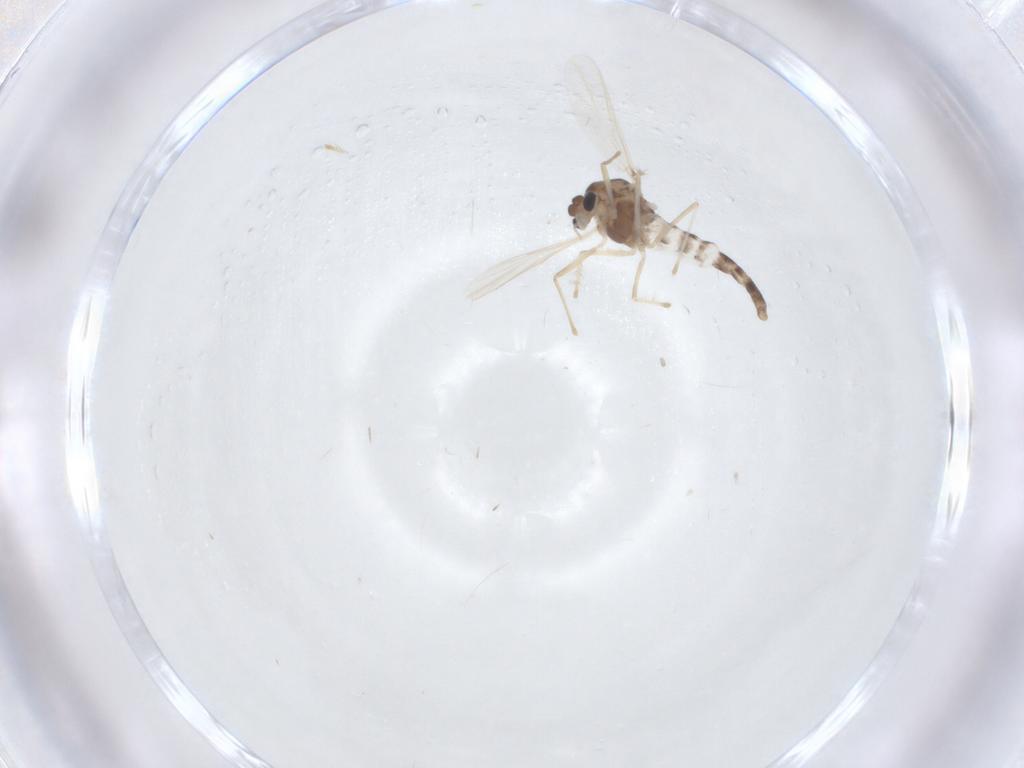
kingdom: Animalia
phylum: Arthropoda
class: Insecta
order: Diptera
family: Chironomidae
